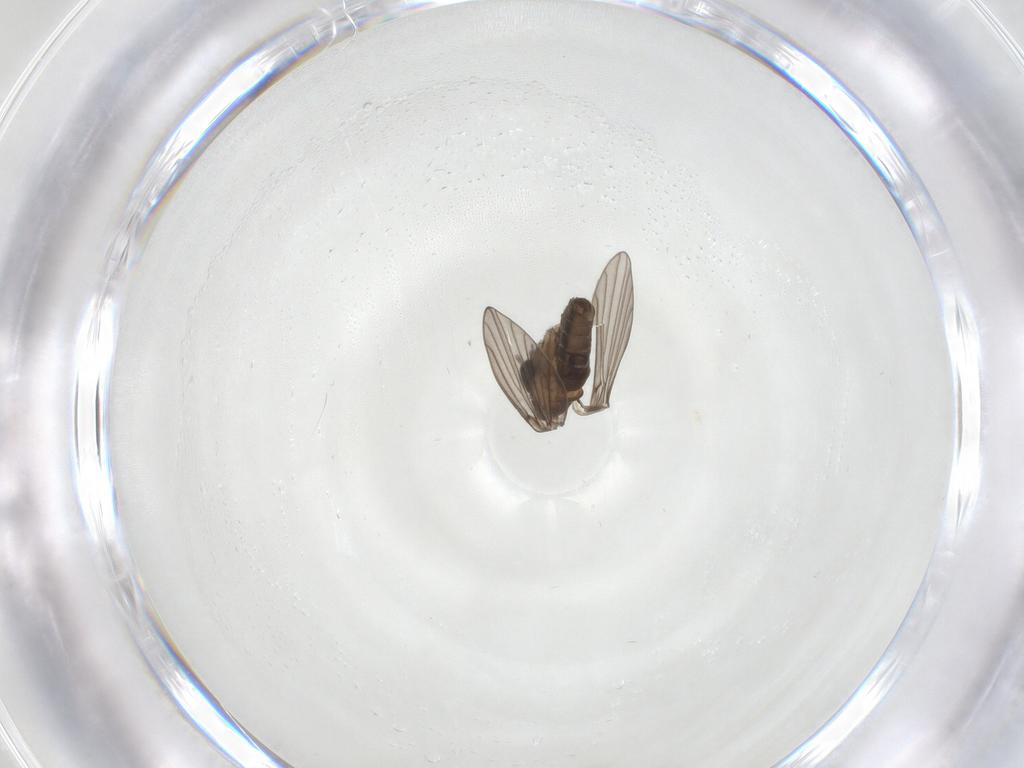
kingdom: Animalia
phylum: Arthropoda
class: Insecta
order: Diptera
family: Psychodidae
